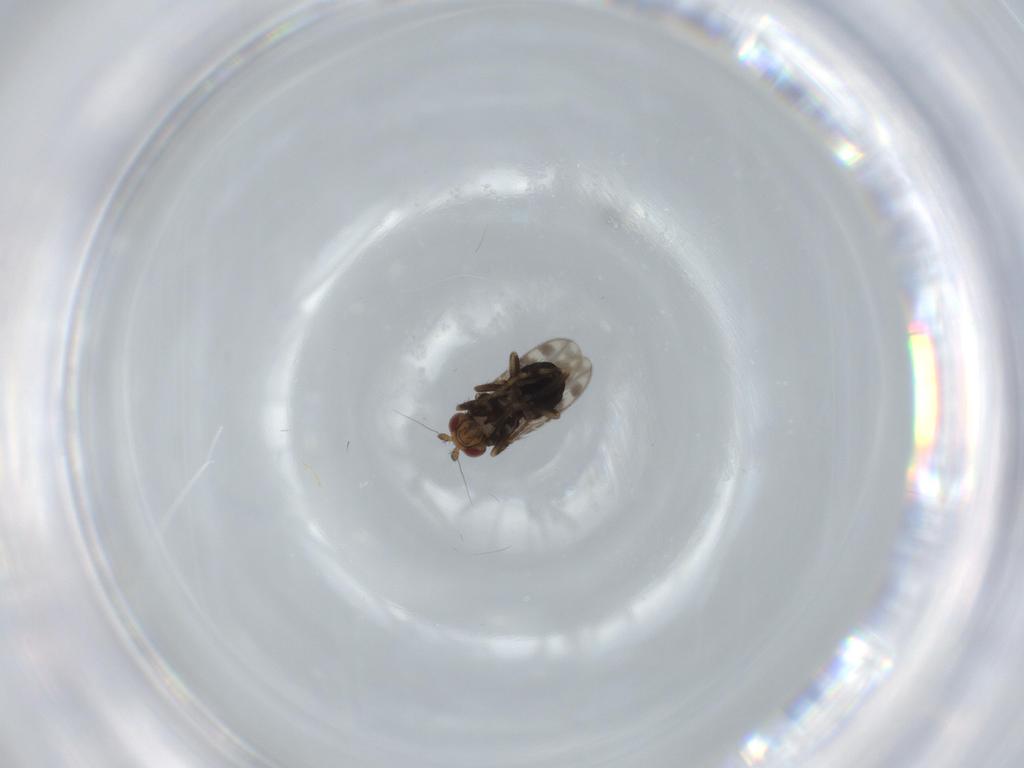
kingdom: Animalia
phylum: Arthropoda
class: Insecta
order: Diptera
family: Sphaeroceridae
